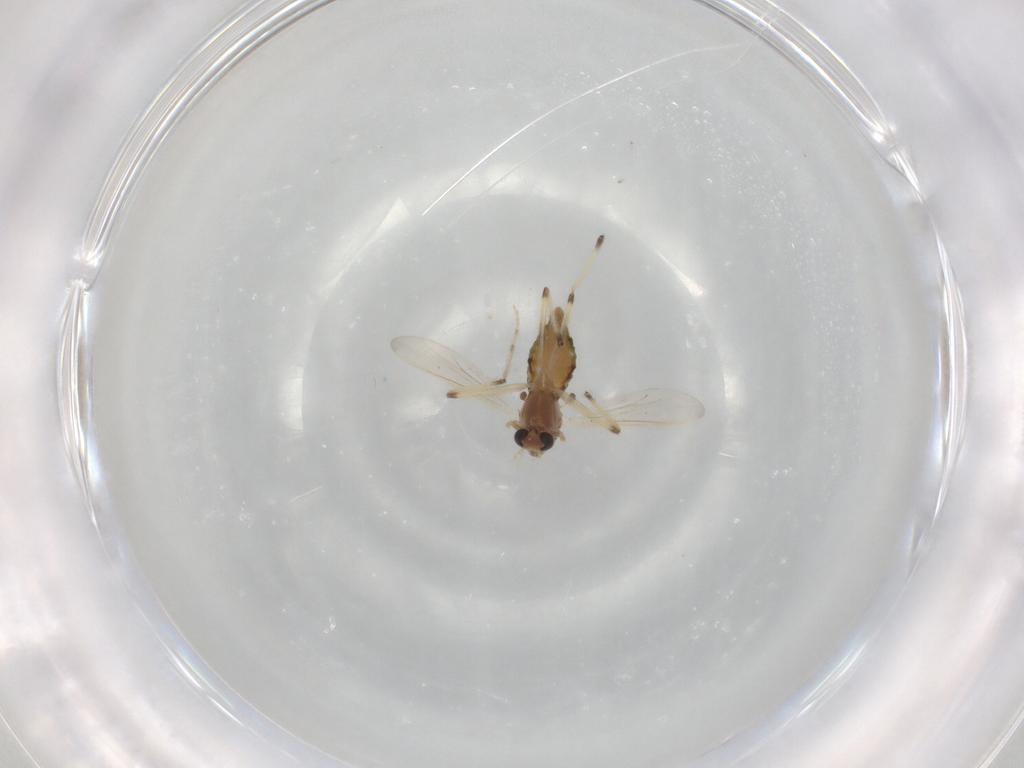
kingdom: Animalia
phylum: Arthropoda
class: Insecta
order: Diptera
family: Chironomidae
